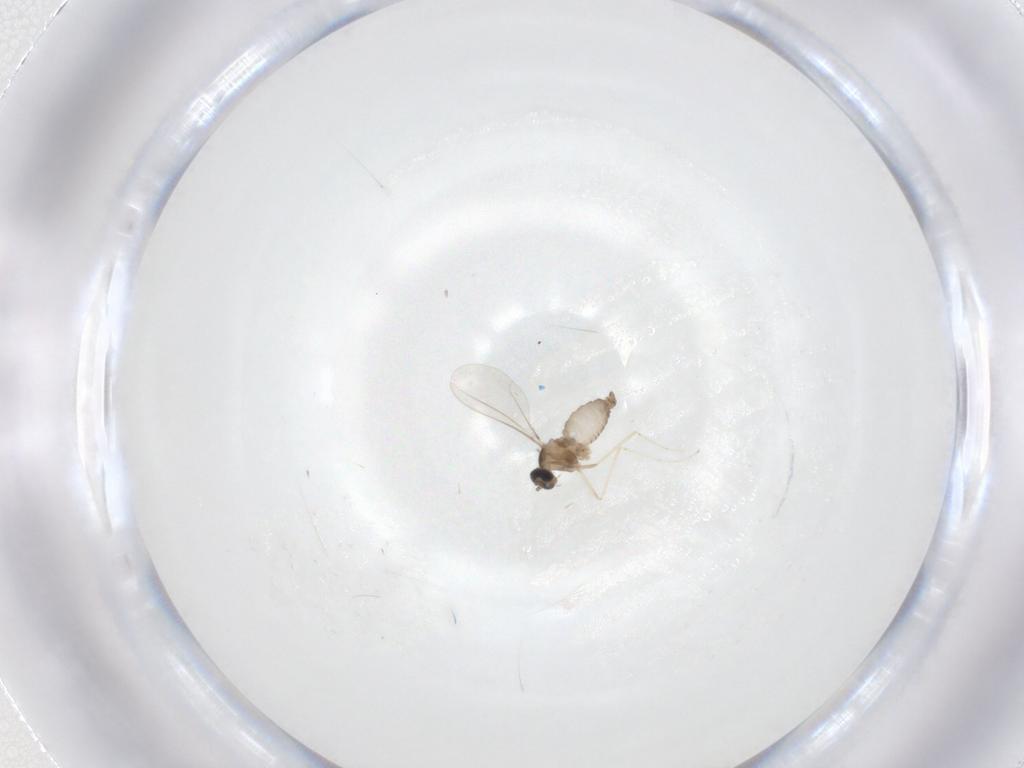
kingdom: Animalia
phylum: Arthropoda
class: Insecta
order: Diptera
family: Cecidomyiidae
